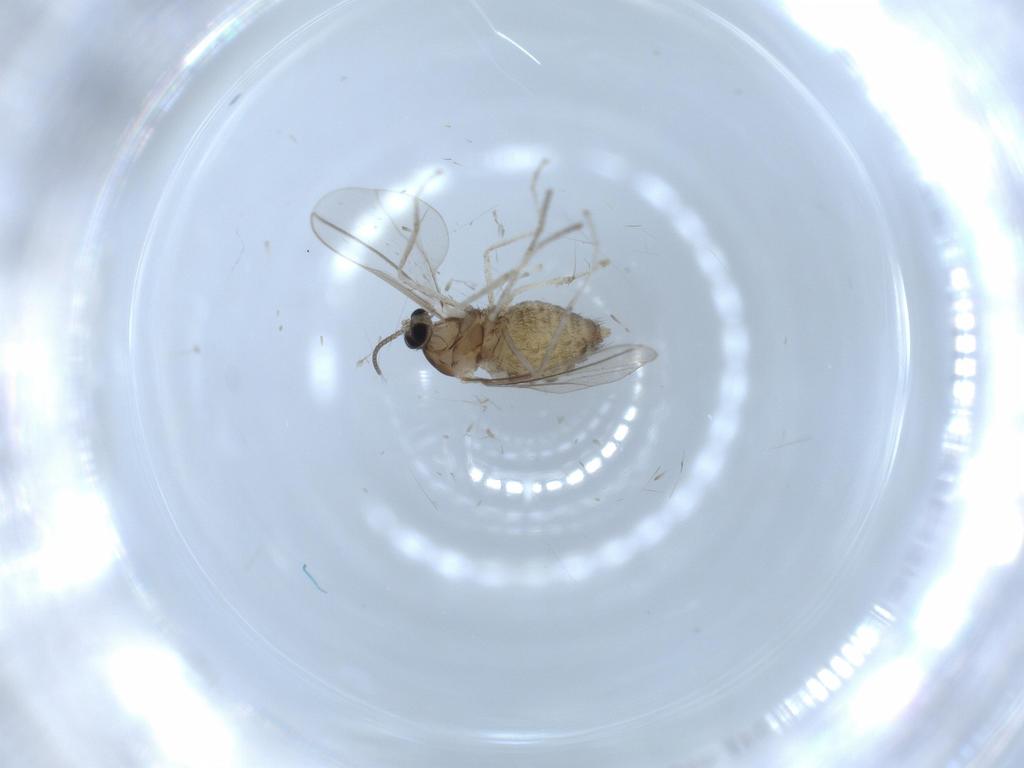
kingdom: Animalia
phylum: Arthropoda
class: Insecta
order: Diptera
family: Cecidomyiidae
